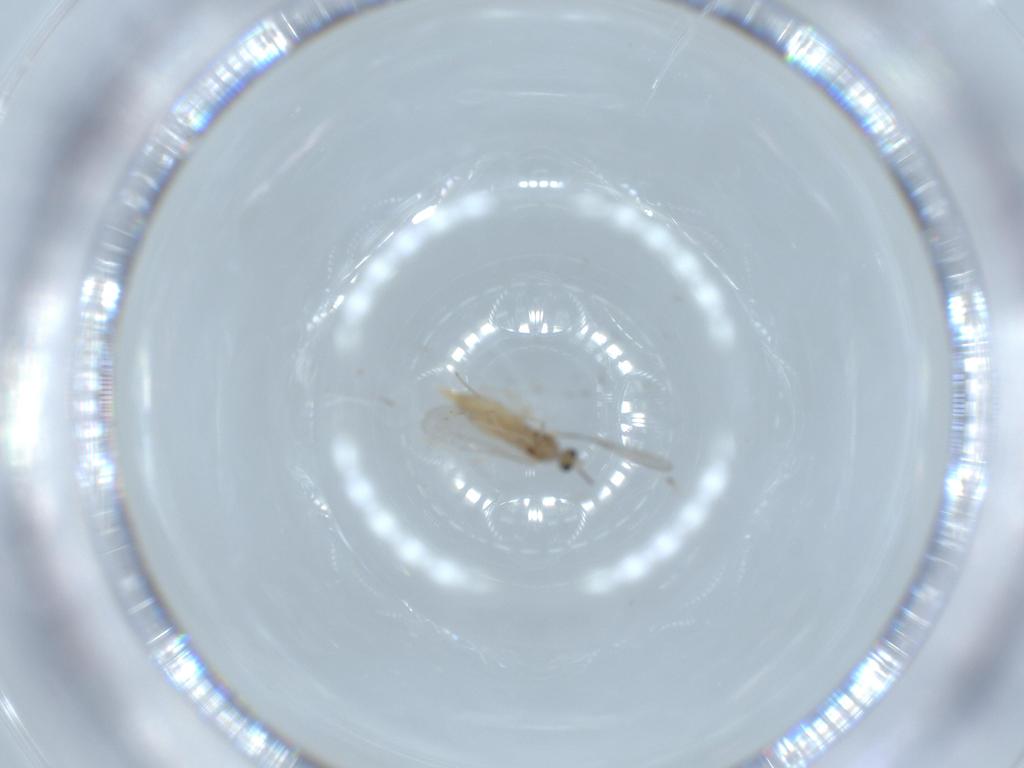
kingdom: Animalia
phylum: Arthropoda
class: Insecta
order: Diptera
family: Cecidomyiidae
